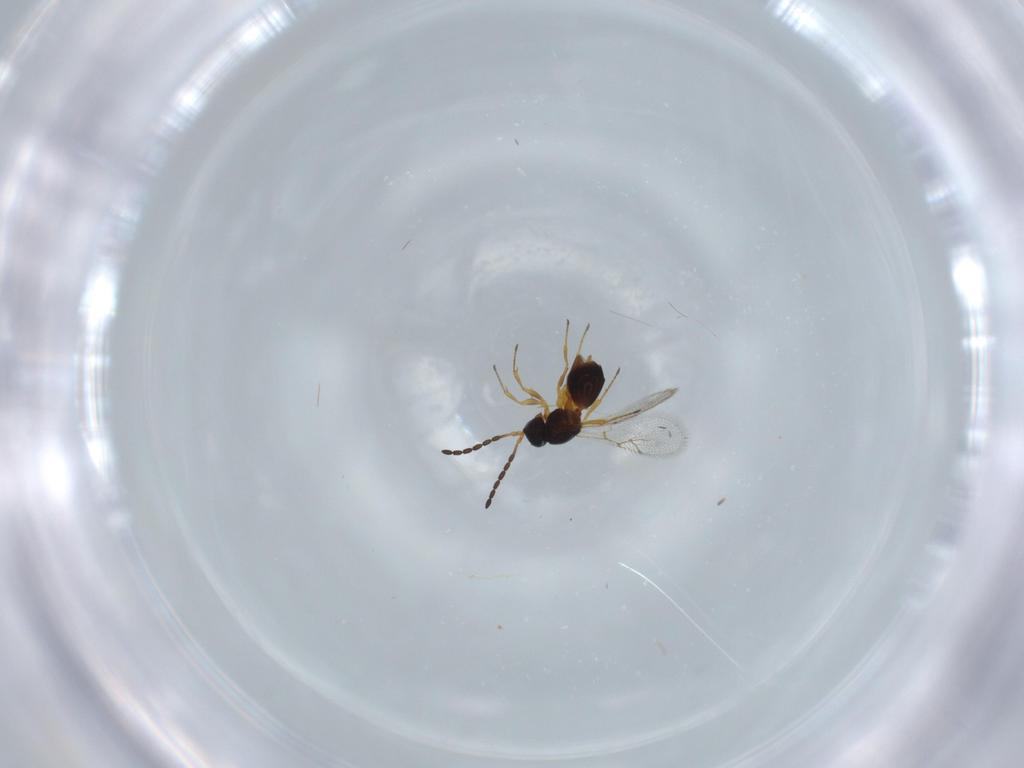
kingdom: Animalia
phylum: Arthropoda
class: Insecta
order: Hymenoptera
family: Figitidae
